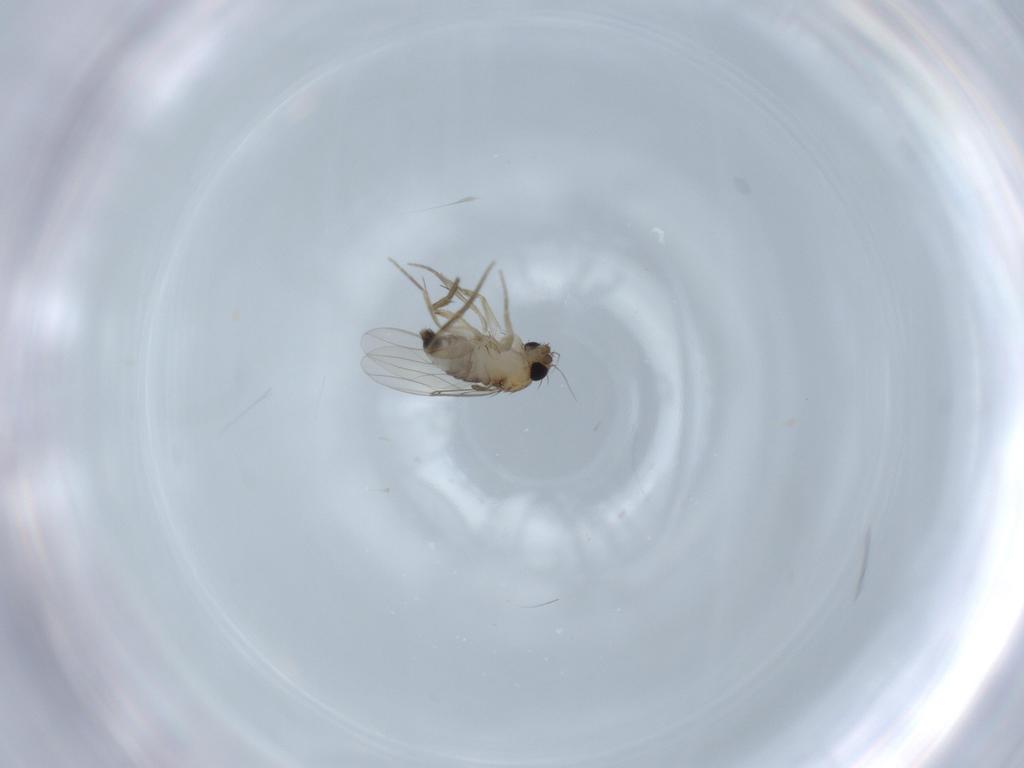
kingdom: Animalia
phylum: Arthropoda
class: Insecta
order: Diptera
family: Phoridae
